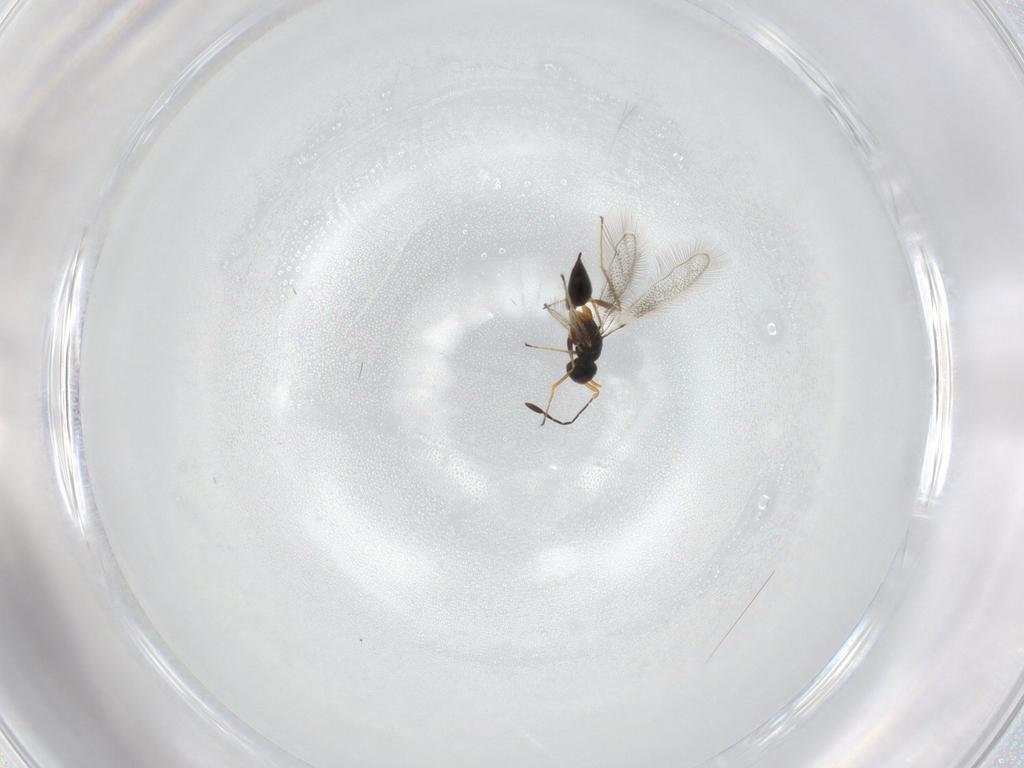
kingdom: Animalia
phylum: Arthropoda
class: Insecta
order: Hymenoptera
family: Mymaridae
